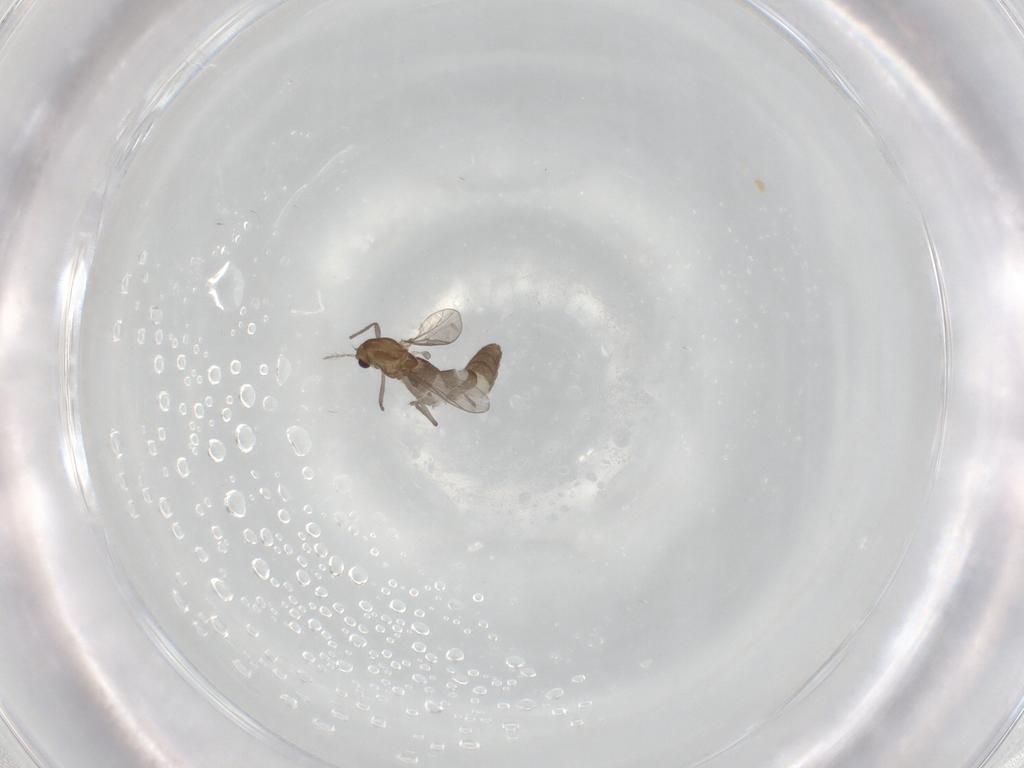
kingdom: Animalia
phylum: Arthropoda
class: Insecta
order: Diptera
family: Chironomidae
